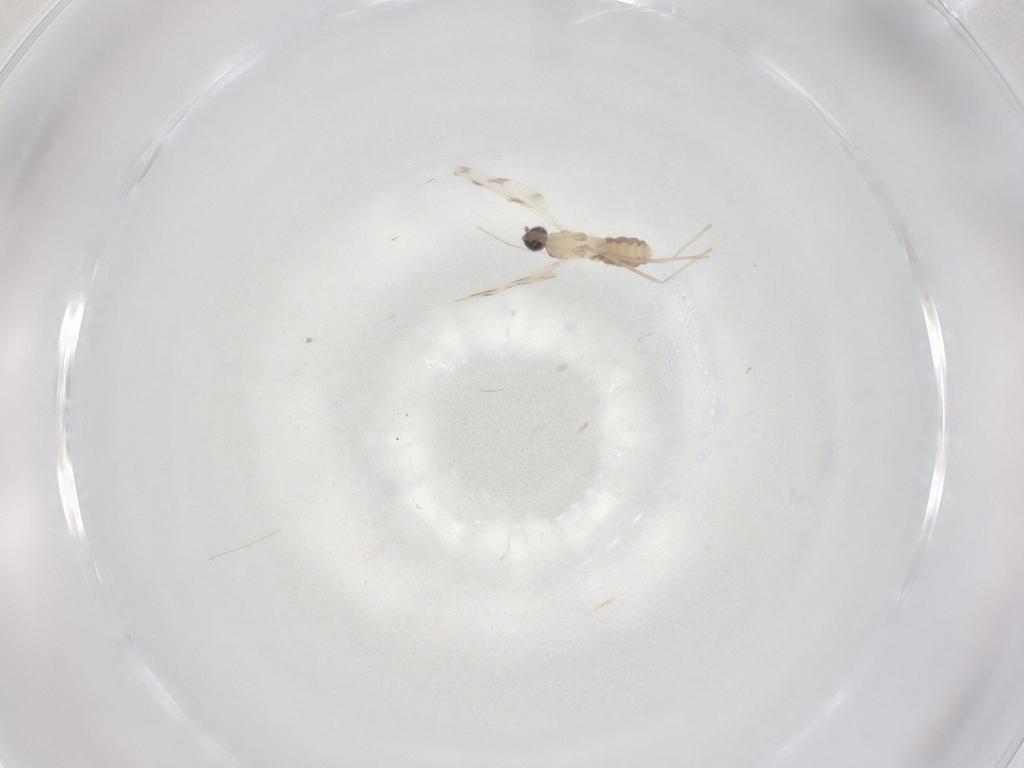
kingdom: Animalia
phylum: Arthropoda
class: Insecta
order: Diptera
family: Cecidomyiidae
